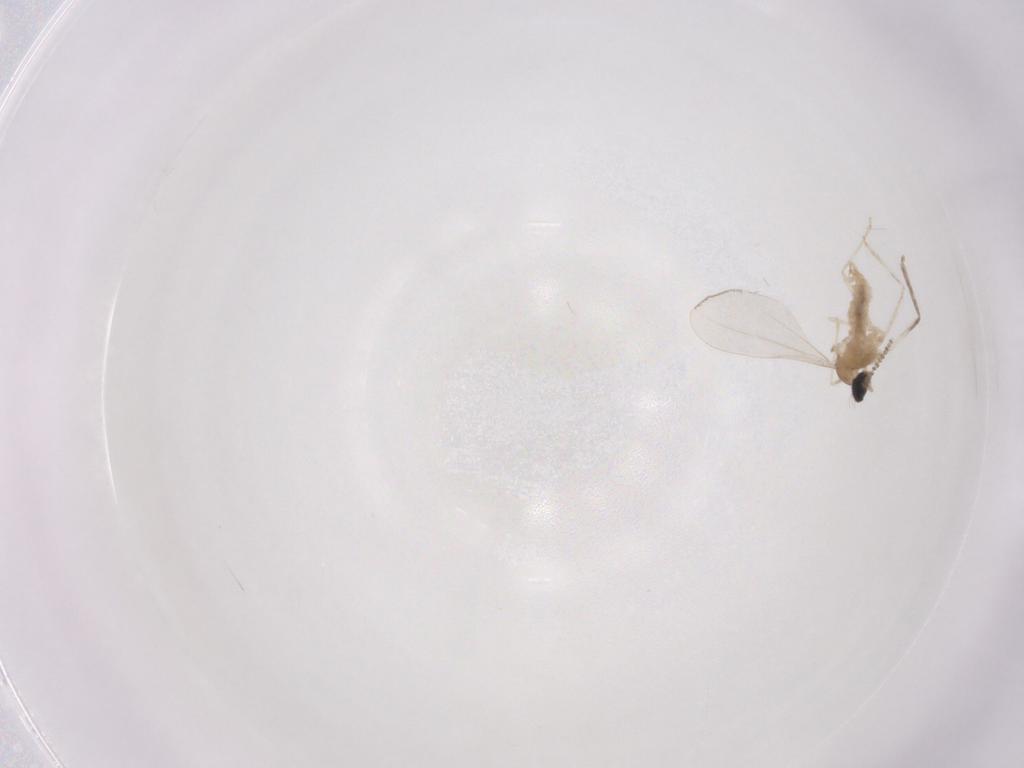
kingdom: Animalia
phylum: Arthropoda
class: Insecta
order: Diptera
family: Cecidomyiidae
